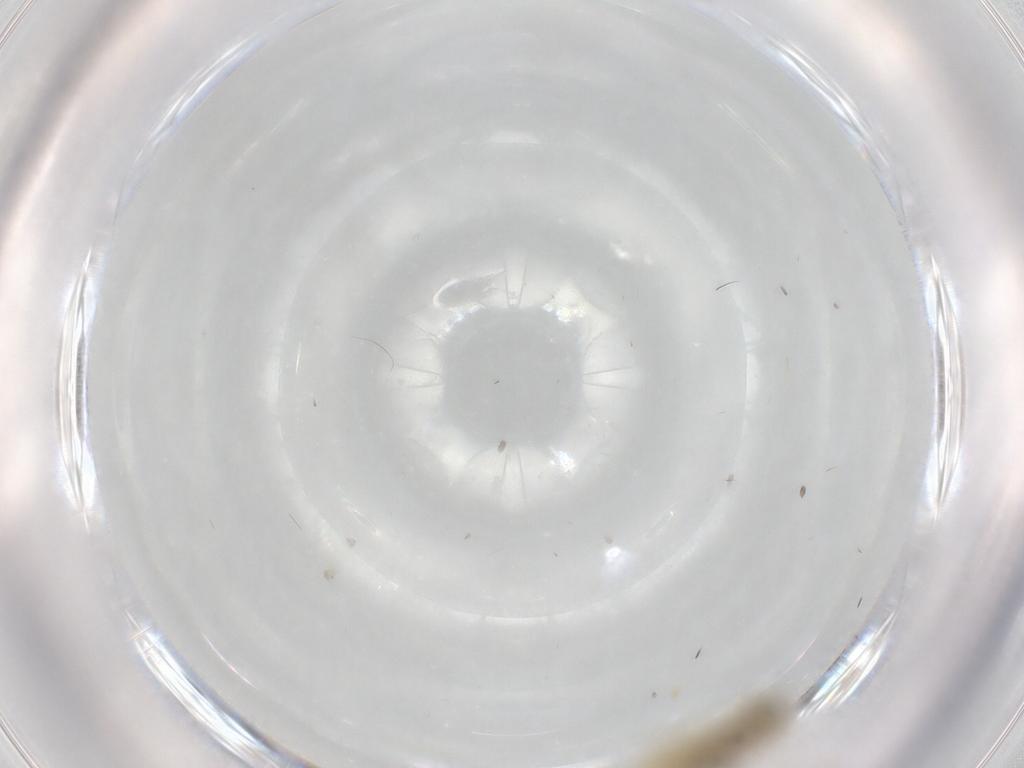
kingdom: Animalia
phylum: Arthropoda
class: Insecta
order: Diptera
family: Chironomidae
